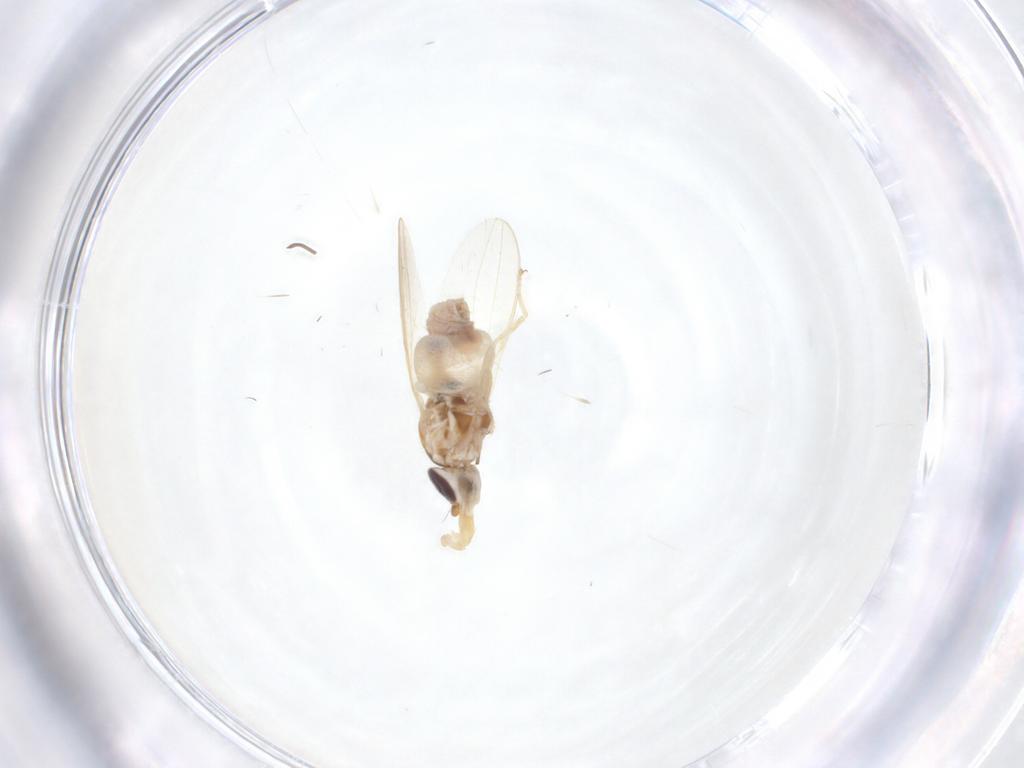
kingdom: Animalia
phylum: Arthropoda
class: Insecta
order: Diptera
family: Chloropidae
